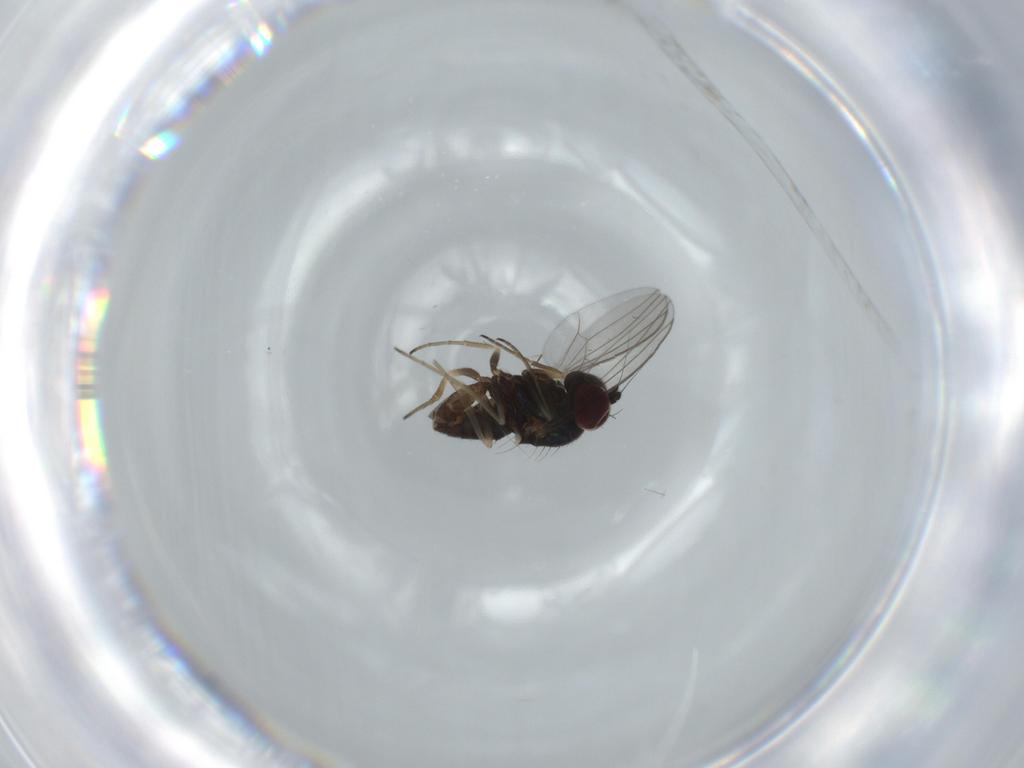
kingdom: Animalia
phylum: Arthropoda
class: Insecta
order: Diptera
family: Dolichopodidae
